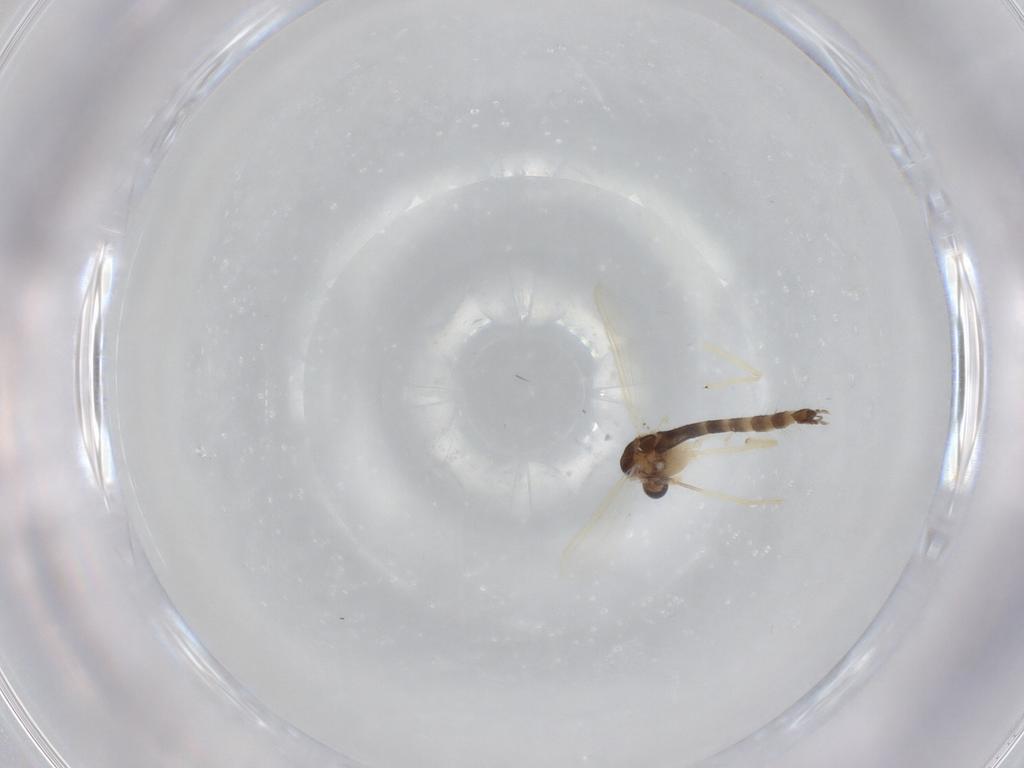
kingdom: Animalia
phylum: Arthropoda
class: Insecta
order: Diptera
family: Chironomidae
